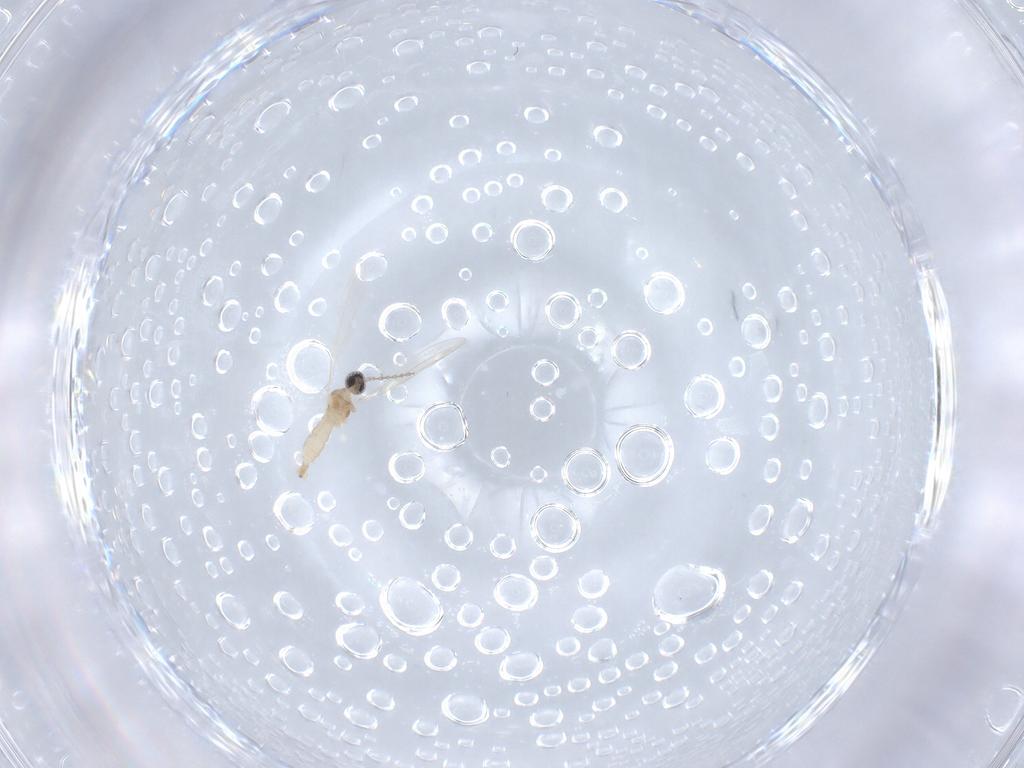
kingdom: Animalia
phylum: Arthropoda
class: Insecta
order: Diptera
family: Cecidomyiidae
